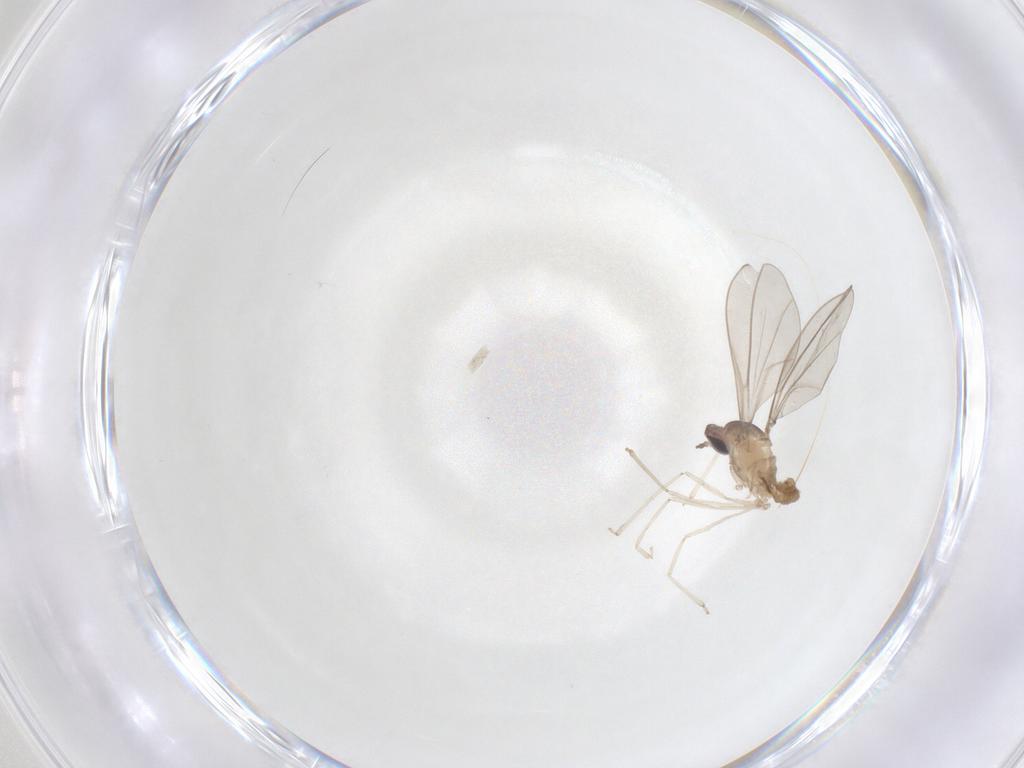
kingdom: Animalia
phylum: Arthropoda
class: Insecta
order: Diptera
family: Cecidomyiidae
